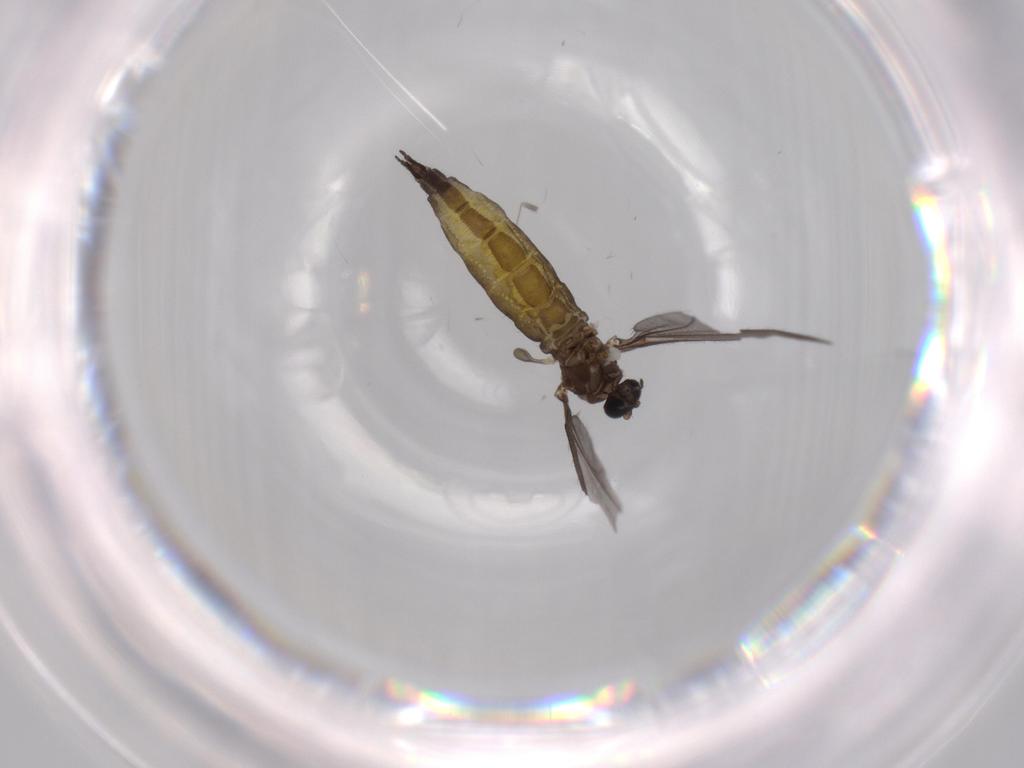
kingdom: Animalia
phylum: Arthropoda
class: Insecta
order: Diptera
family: Sciaridae
